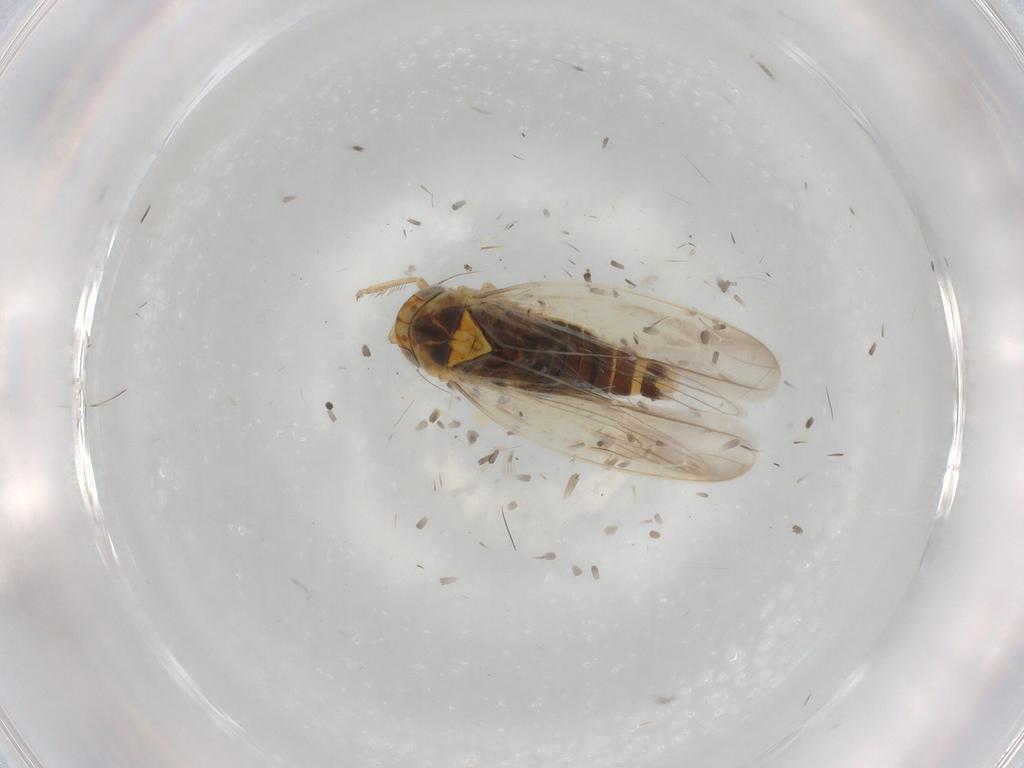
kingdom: Animalia
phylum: Arthropoda
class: Insecta
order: Hemiptera
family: Cicadellidae
